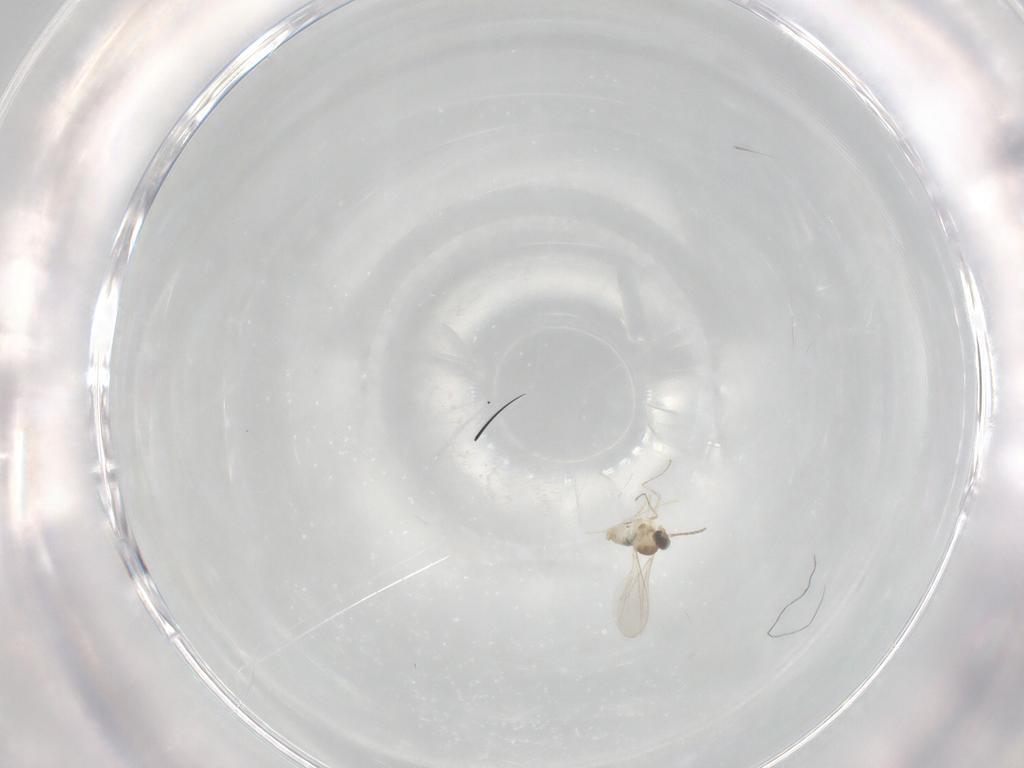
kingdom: Animalia
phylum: Arthropoda
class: Insecta
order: Diptera
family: Cecidomyiidae
